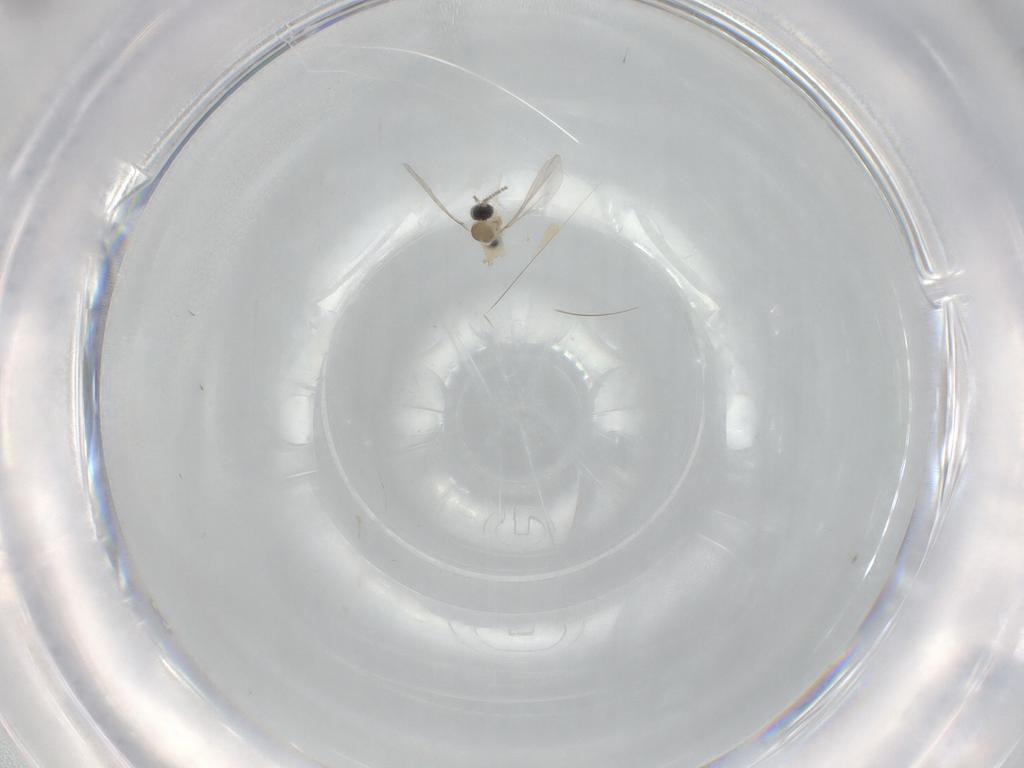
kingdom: Animalia
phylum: Arthropoda
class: Insecta
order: Diptera
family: Cecidomyiidae
